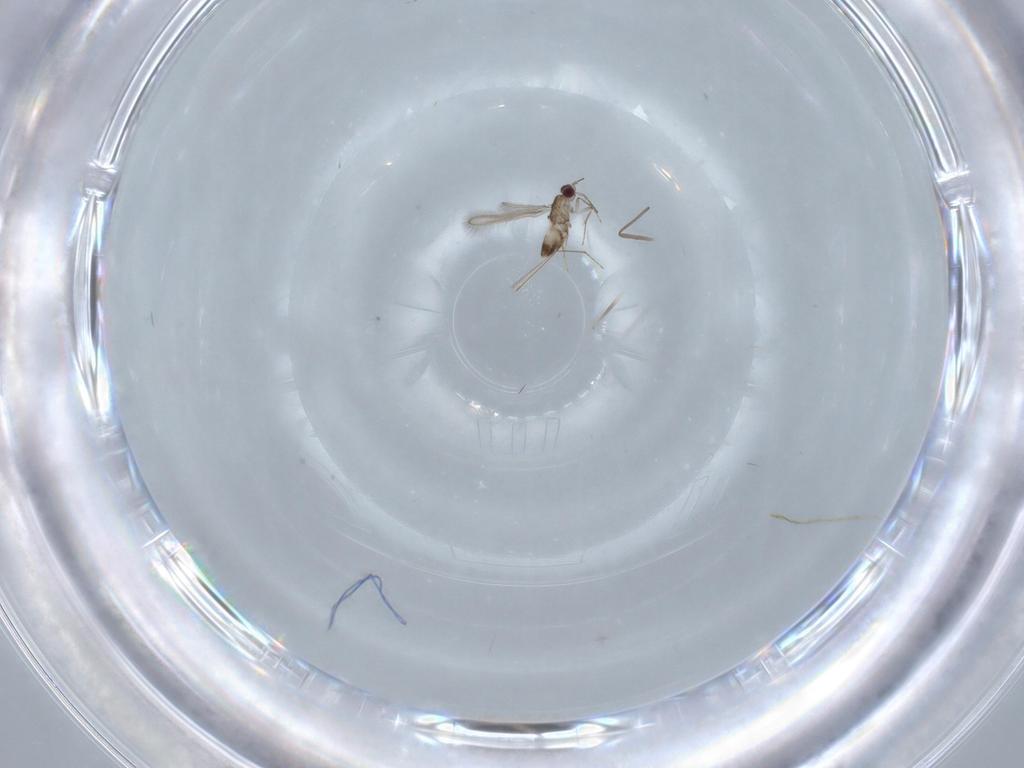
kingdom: Animalia
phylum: Arthropoda
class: Insecta
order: Hymenoptera
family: Mymaridae
